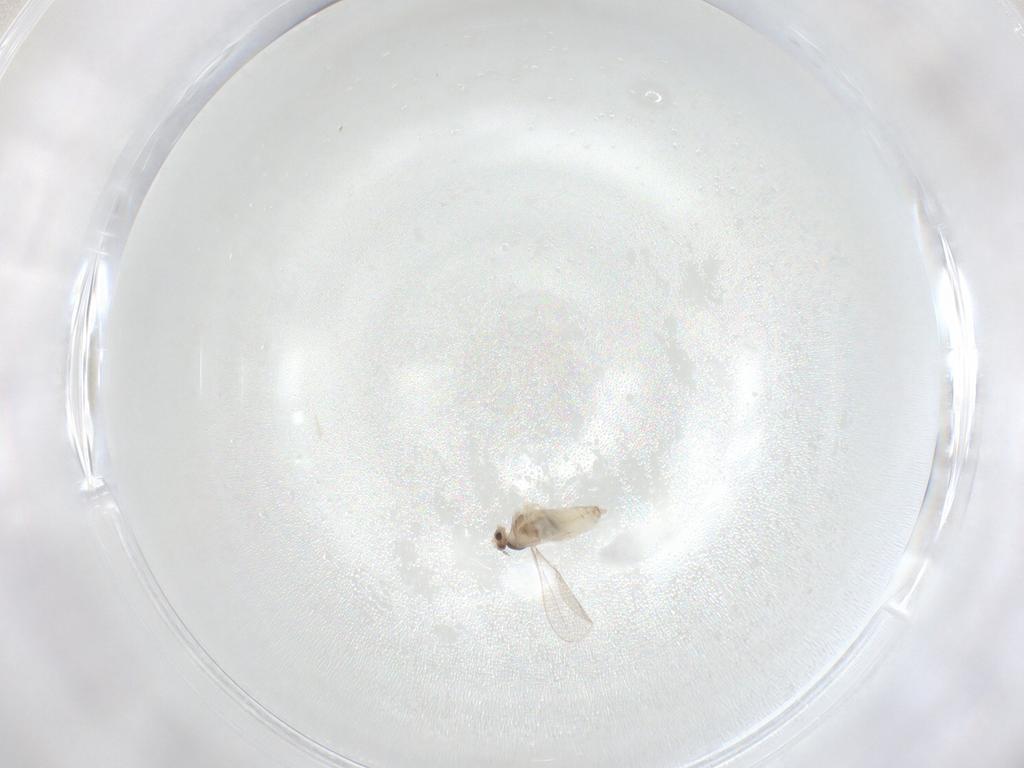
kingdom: Animalia
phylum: Arthropoda
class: Insecta
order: Diptera
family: Cecidomyiidae
